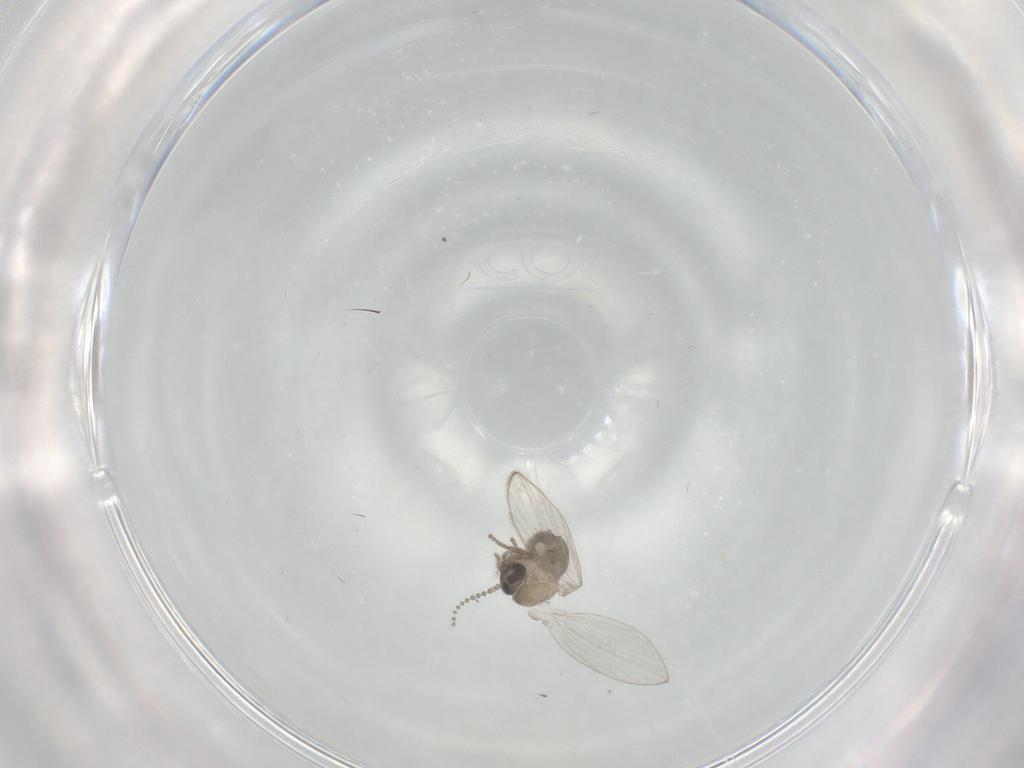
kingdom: Animalia
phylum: Arthropoda
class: Insecta
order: Diptera
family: Psychodidae
